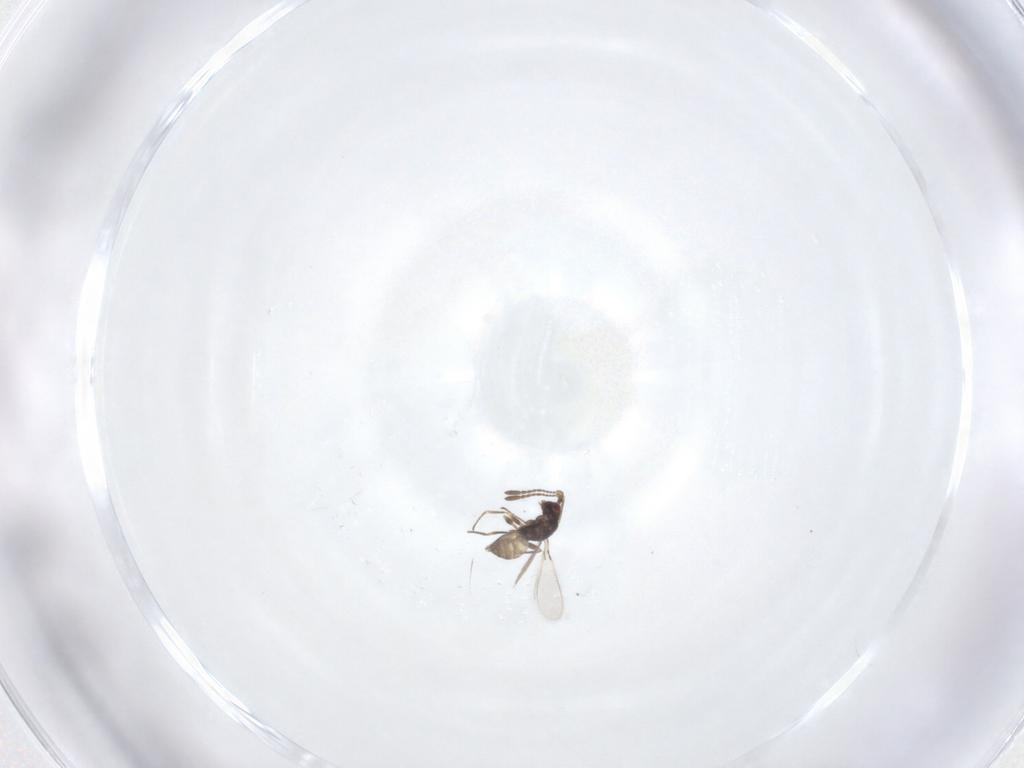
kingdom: Animalia
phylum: Arthropoda
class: Insecta
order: Hymenoptera
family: Mymaridae
